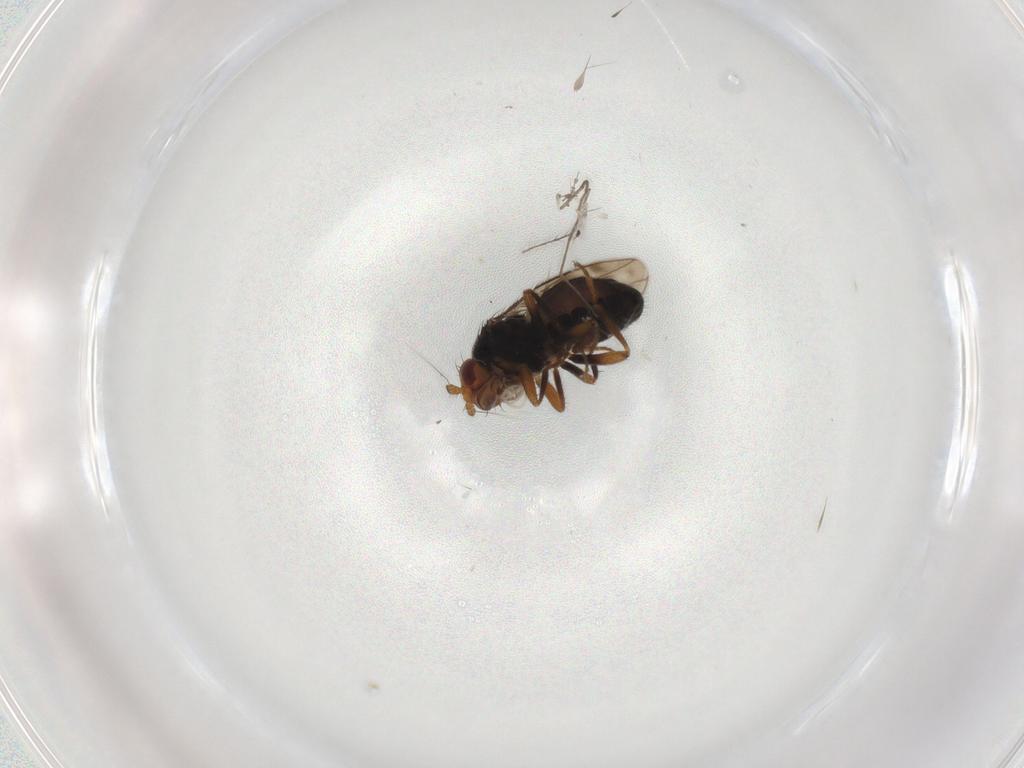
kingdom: Animalia
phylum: Arthropoda
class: Insecta
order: Diptera
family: Sphaeroceridae
